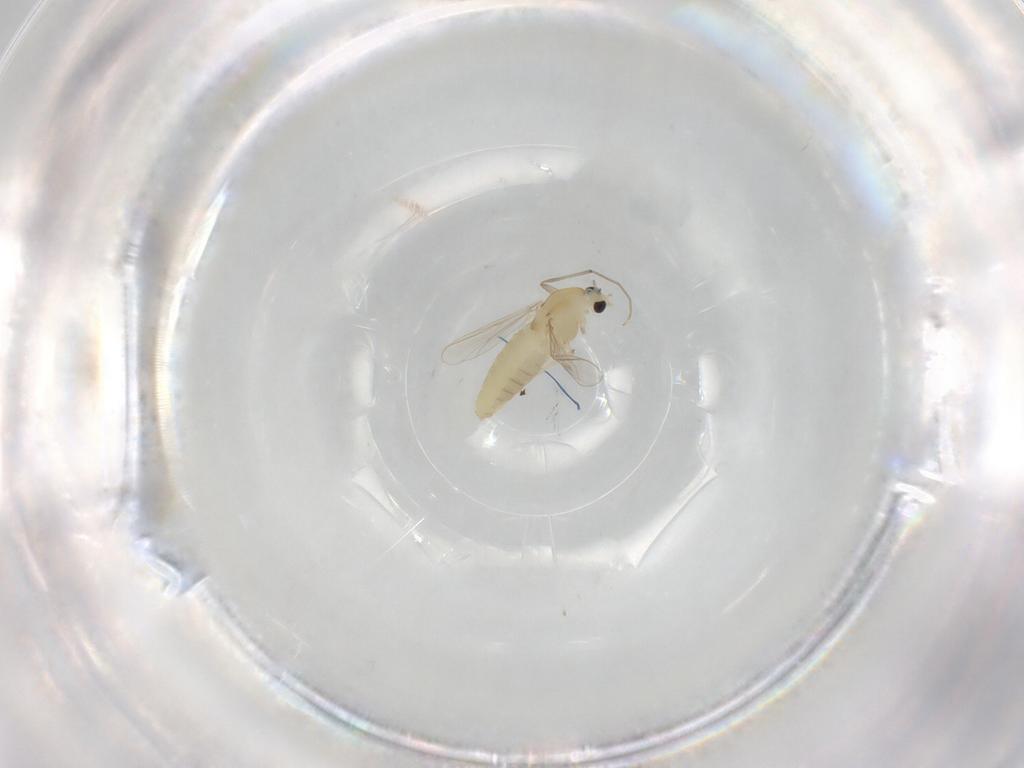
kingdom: Animalia
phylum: Arthropoda
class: Insecta
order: Diptera
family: Chironomidae
